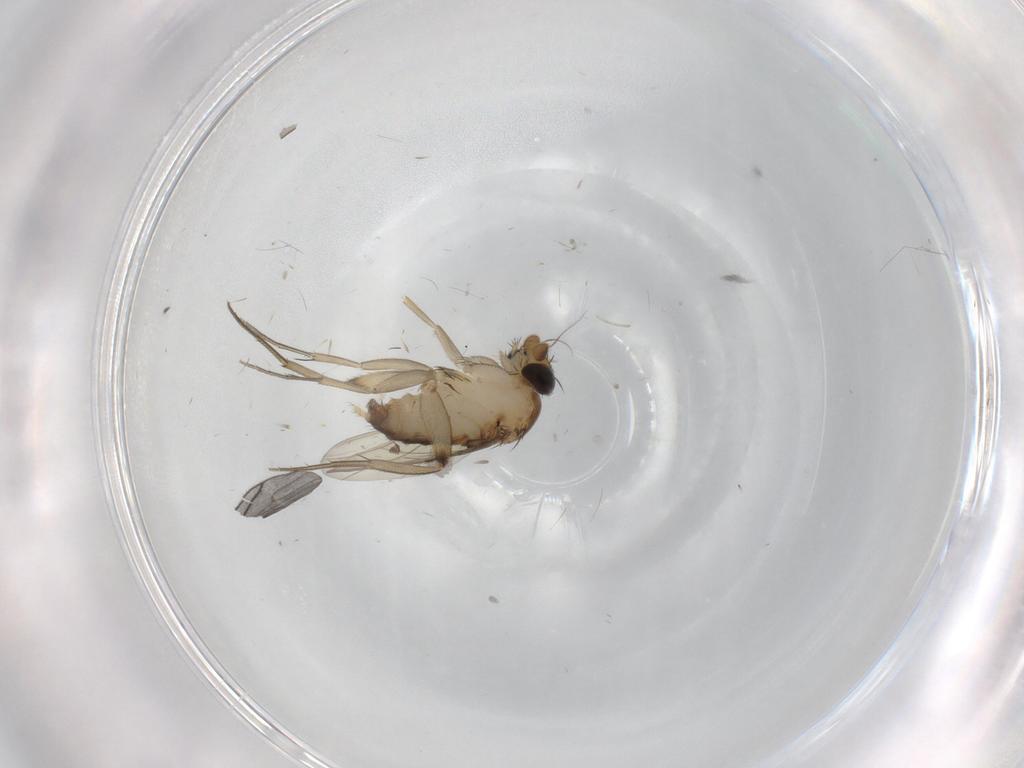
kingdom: Animalia
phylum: Arthropoda
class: Insecta
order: Diptera
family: Phoridae
